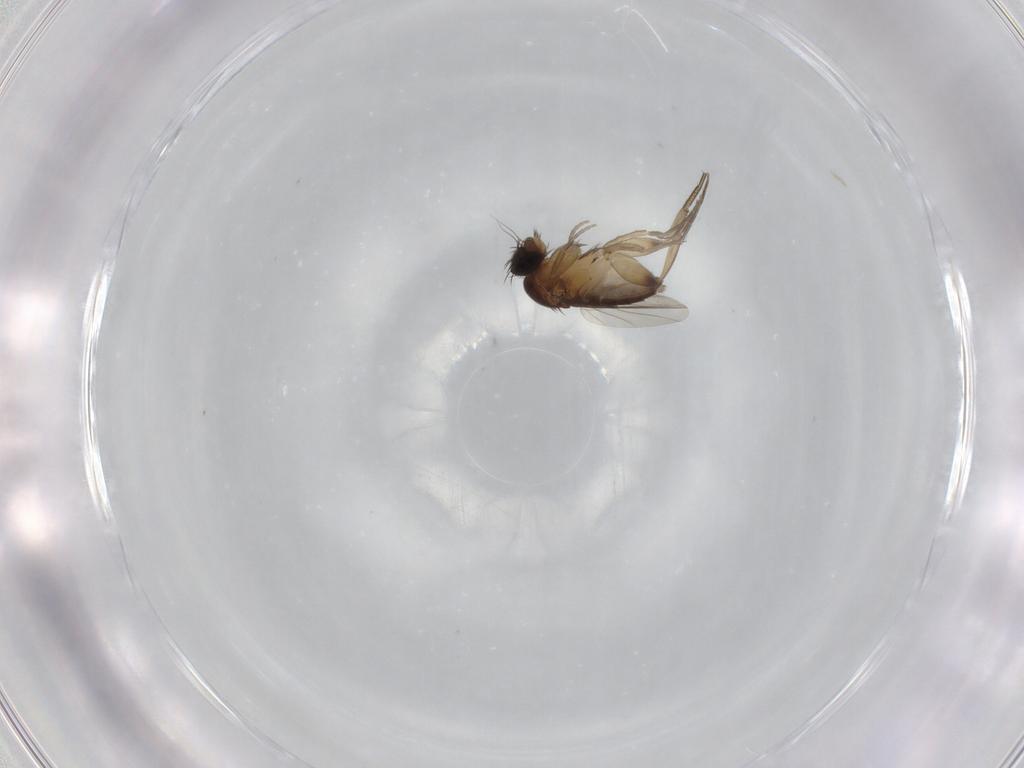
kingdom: Animalia
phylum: Arthropoda
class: Insecta
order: Diptera
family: Phoridae
